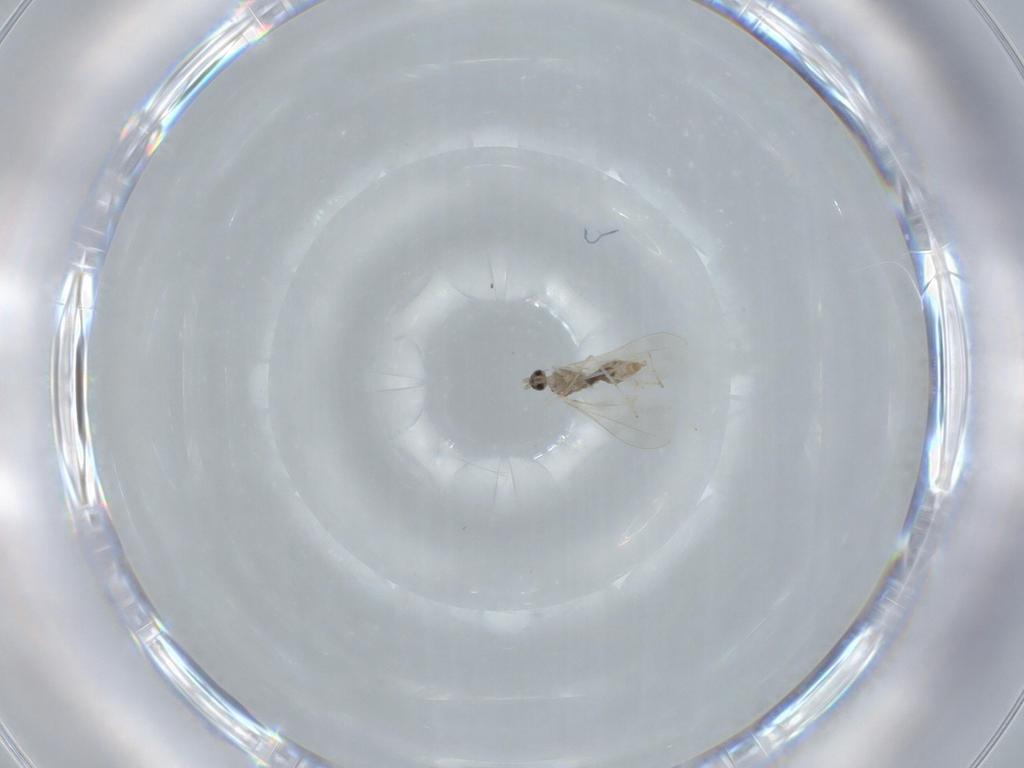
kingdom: Animalia
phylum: Arthropoda
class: Insecta
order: Diptera
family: Cecidomyiidae
